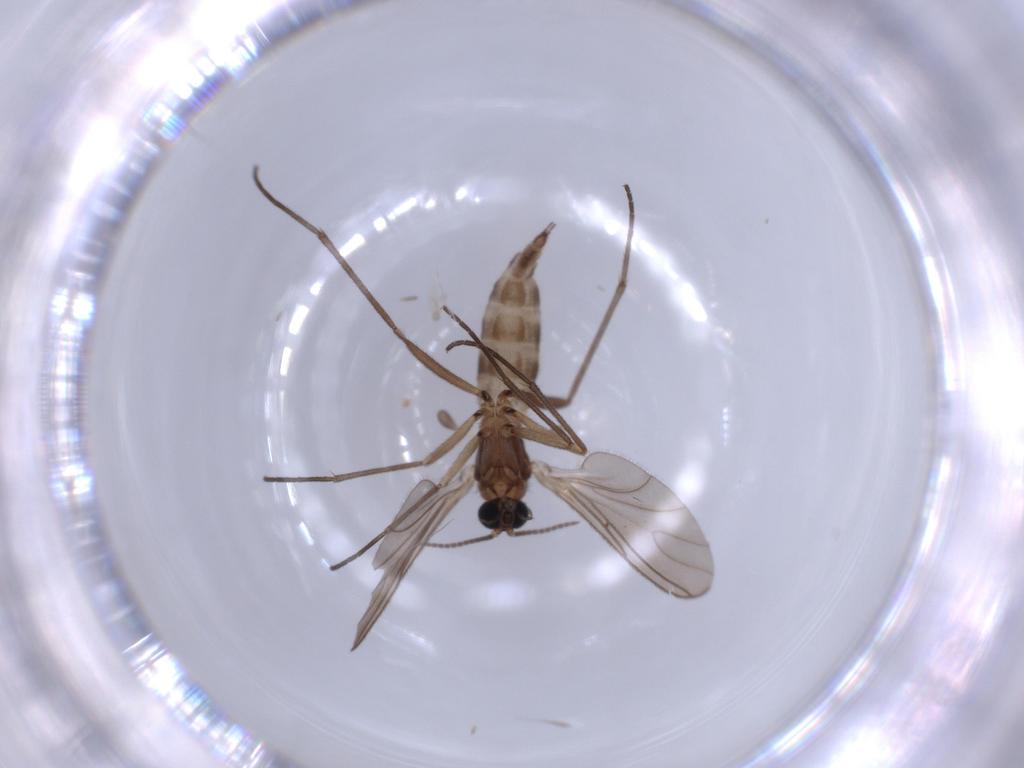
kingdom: Animalia
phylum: Arthropoda
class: Insecta
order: Diptera
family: Sciaridae
